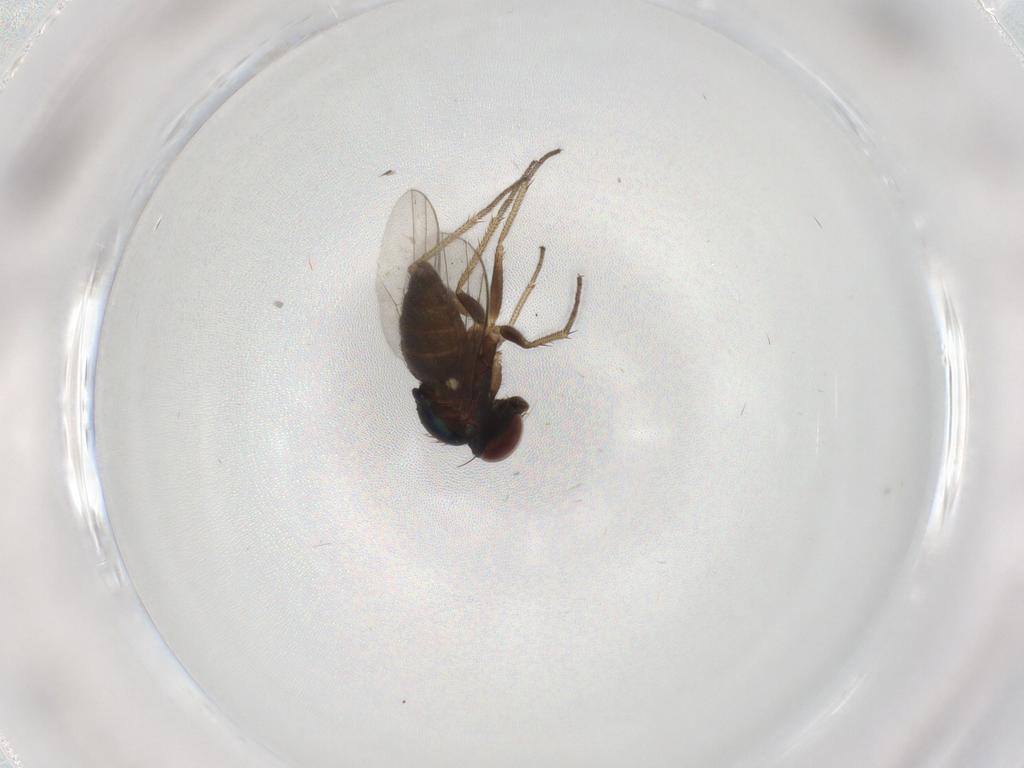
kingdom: Animalia
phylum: Arthropoda
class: Insecta
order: Diptera
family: Dolichopodidae
